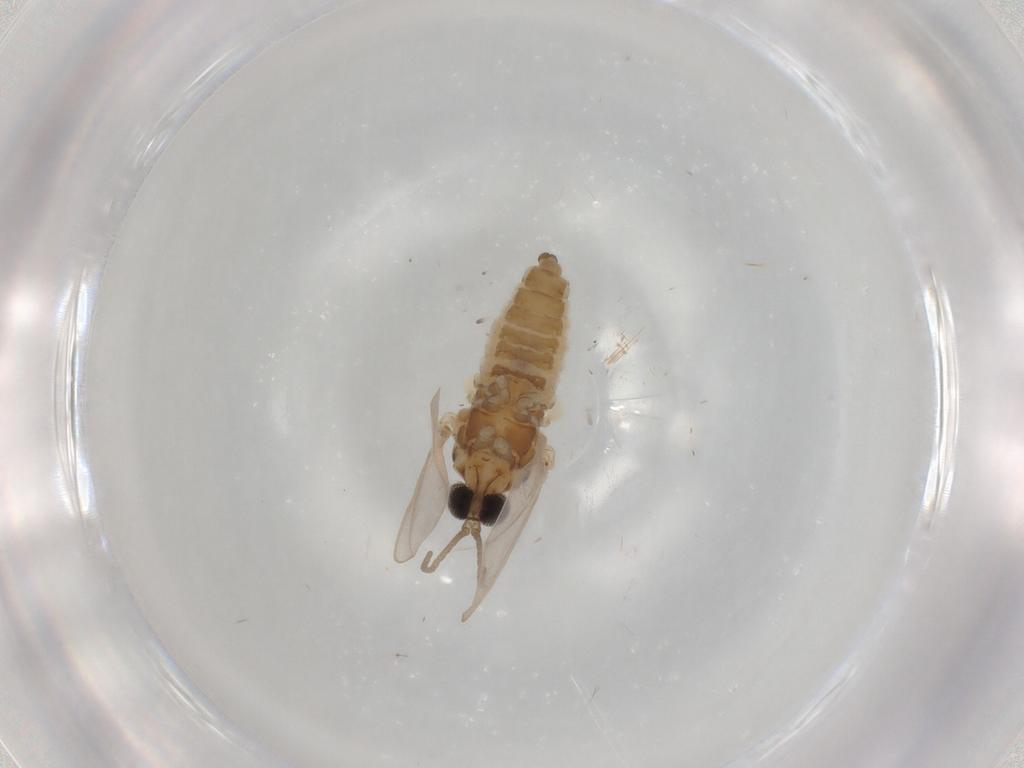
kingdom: Animalia
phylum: Arthropoda
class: Insecta
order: Diptera
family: Cecidomyiidae
